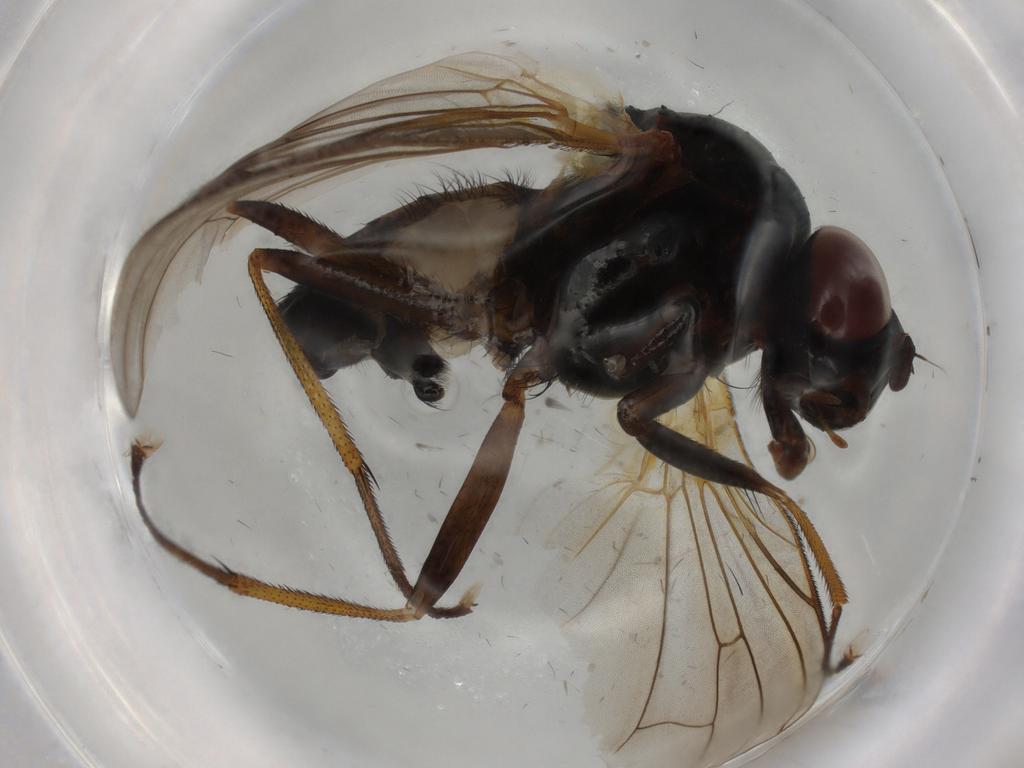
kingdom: Animalia
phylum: Arthropoda
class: Insecta
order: Diptera
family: Anthomyiidae
